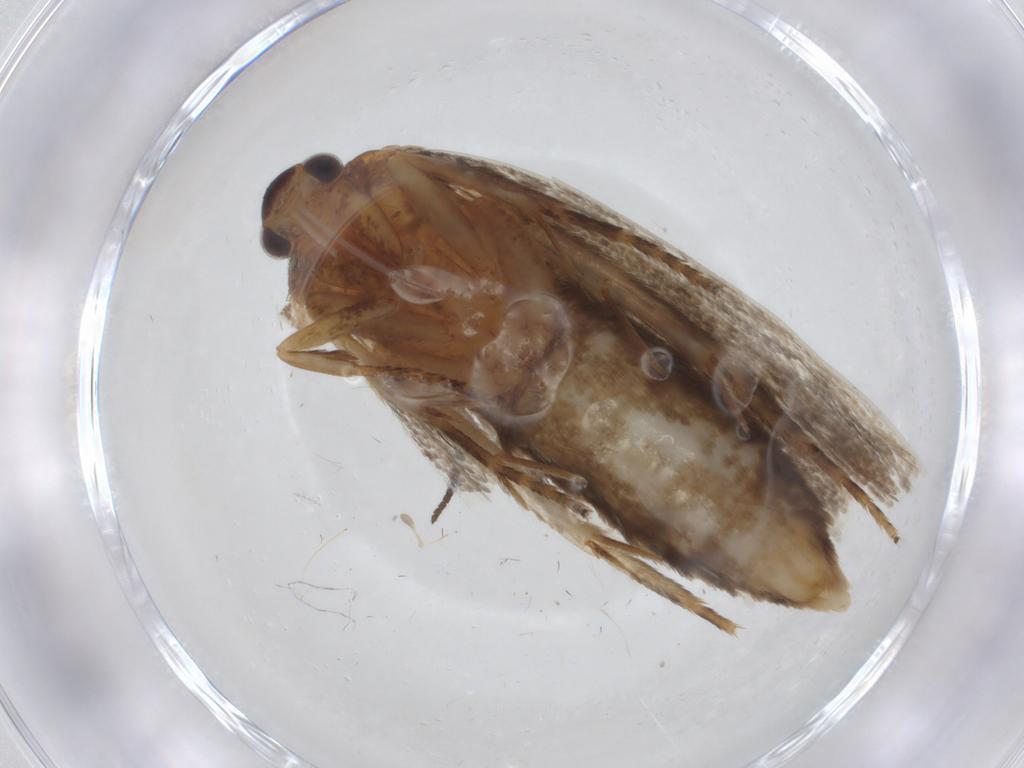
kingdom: Animalia
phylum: Arthropoda
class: Insecta
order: Lepidoptera
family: Oecophoridae
